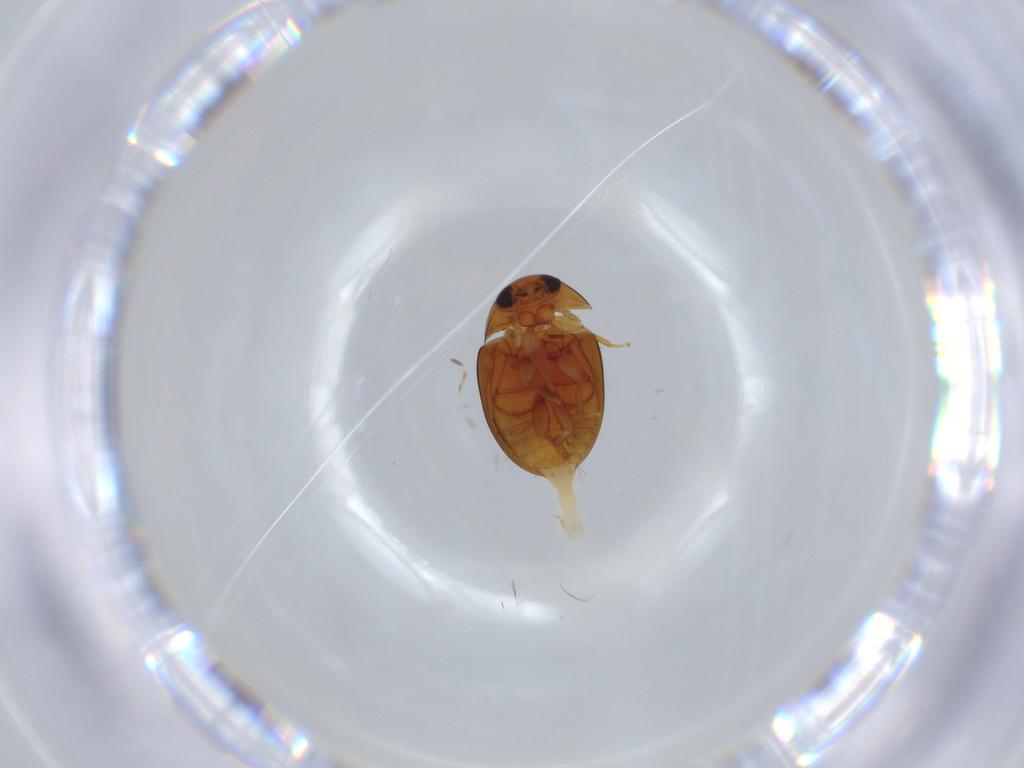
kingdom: Animalia
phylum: Arthropoda
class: Insecta
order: Coleoptera
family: Phalacridae
